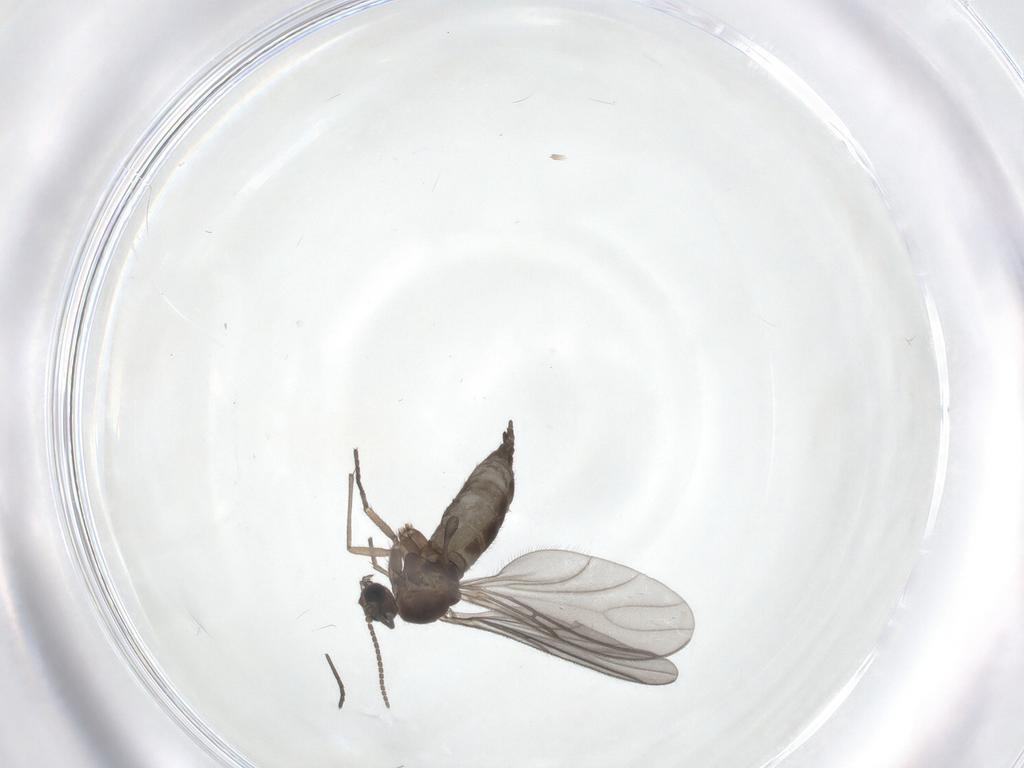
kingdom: Animalia
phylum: Arthropoda
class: Insecta
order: Diptera
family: Sciaridae
